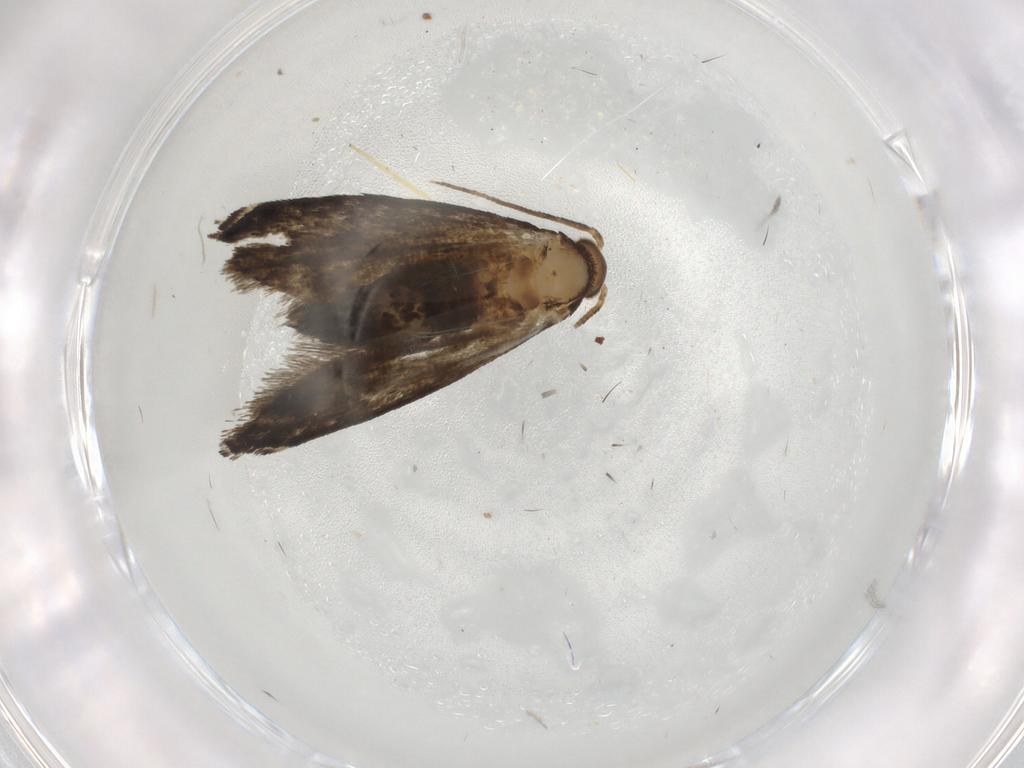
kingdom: Animalia
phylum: Arthropoda
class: Insecta
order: Lepidoptera
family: Crambidae
